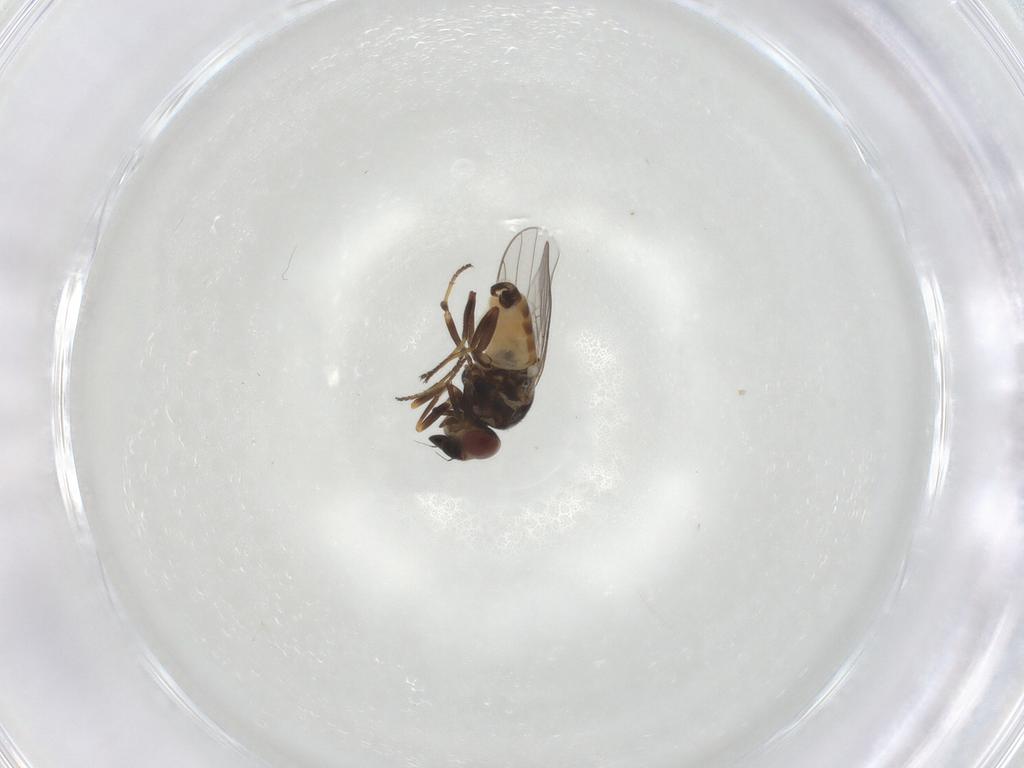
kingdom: Animalia
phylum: Arthropoda
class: Insecta
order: Diptera
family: Chloropidae
